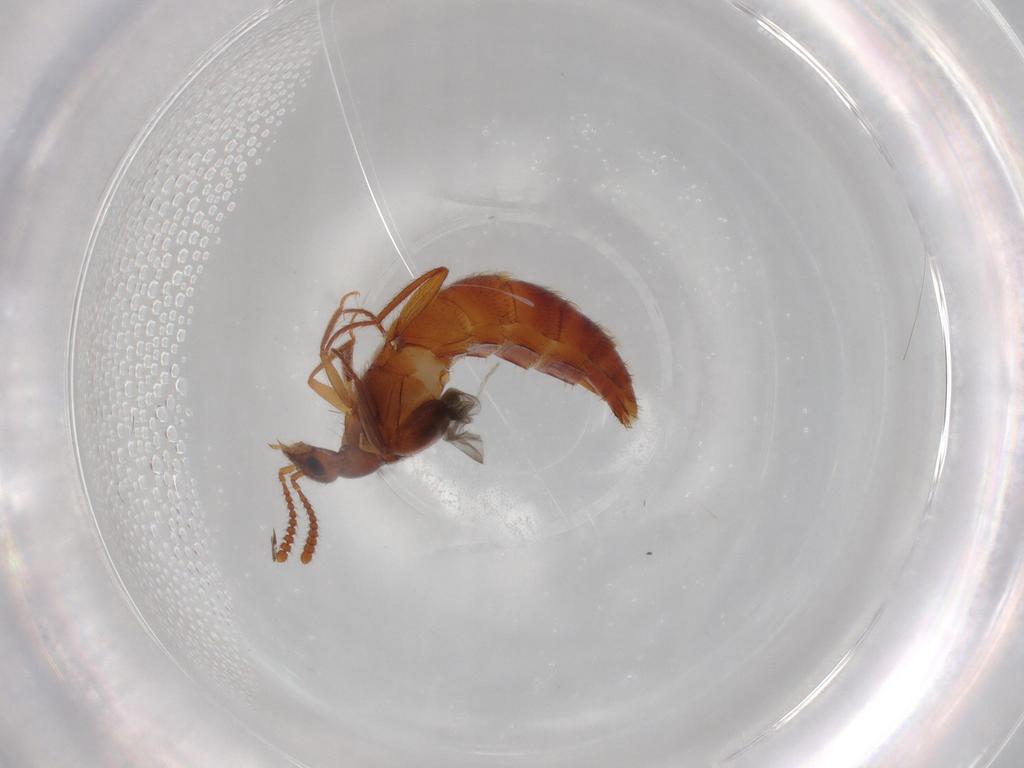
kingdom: Animalia
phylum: Arthropoda
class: Insecta
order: Coleoptera
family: Staphylinidae
